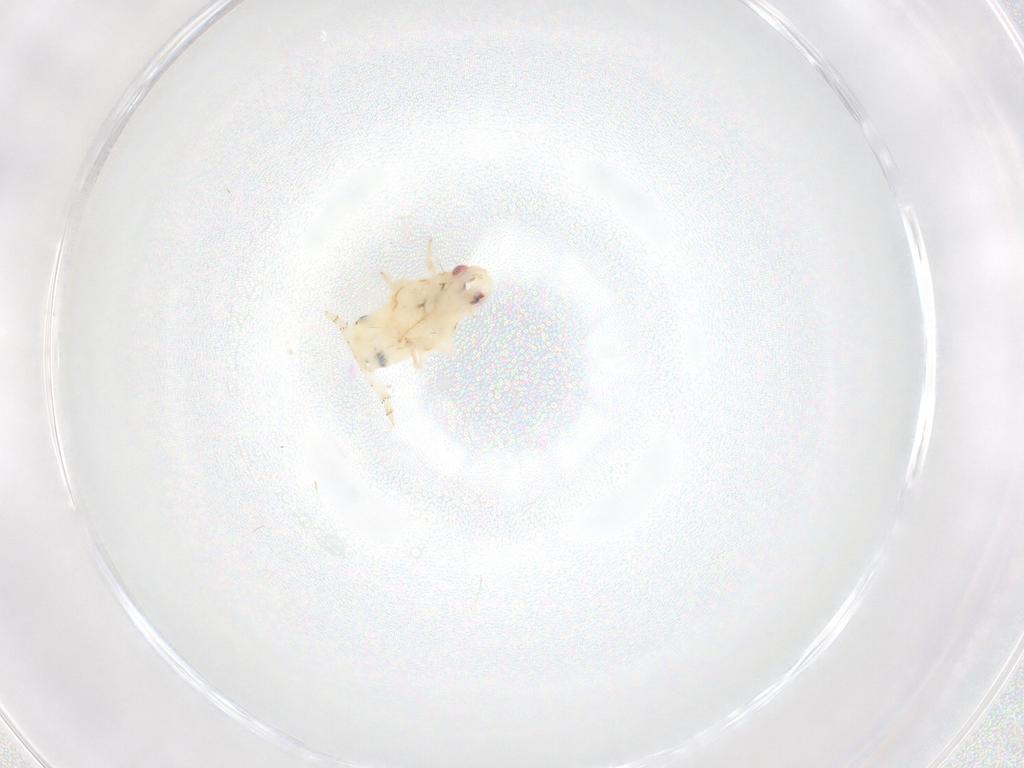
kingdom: Animalia
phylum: Arthropoda
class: Insecta
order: Hemiptera
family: Flatidae
